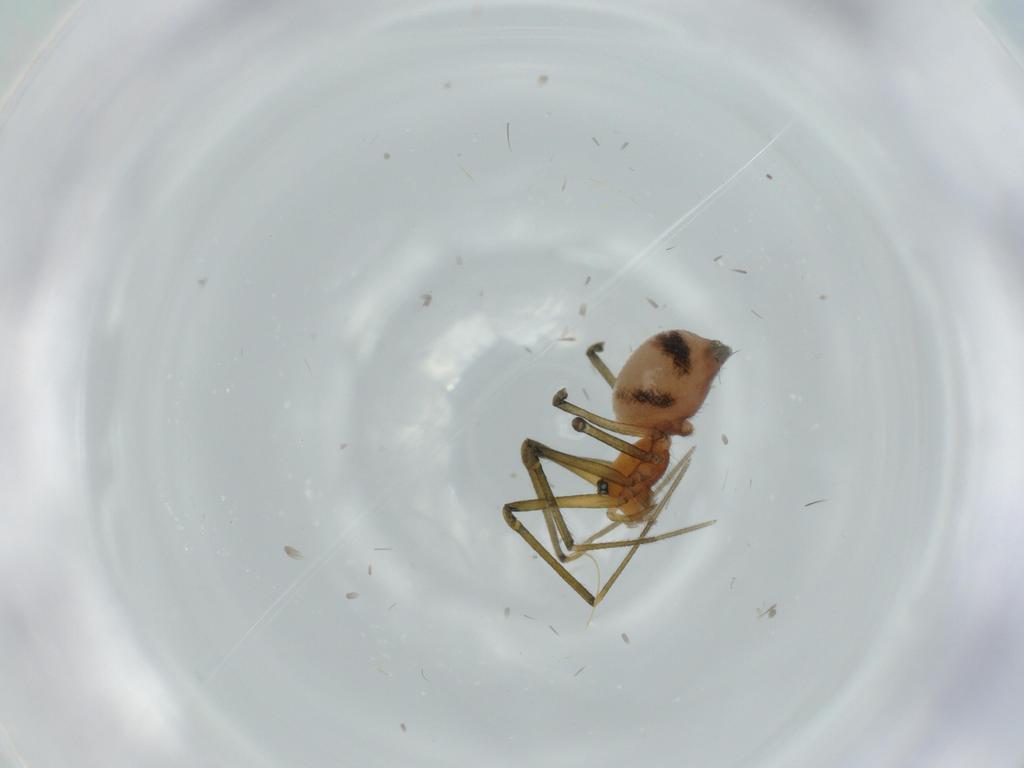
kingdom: Animalia
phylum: Arthropoda
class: Arachnida
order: Araneae
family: Linyphiidae
